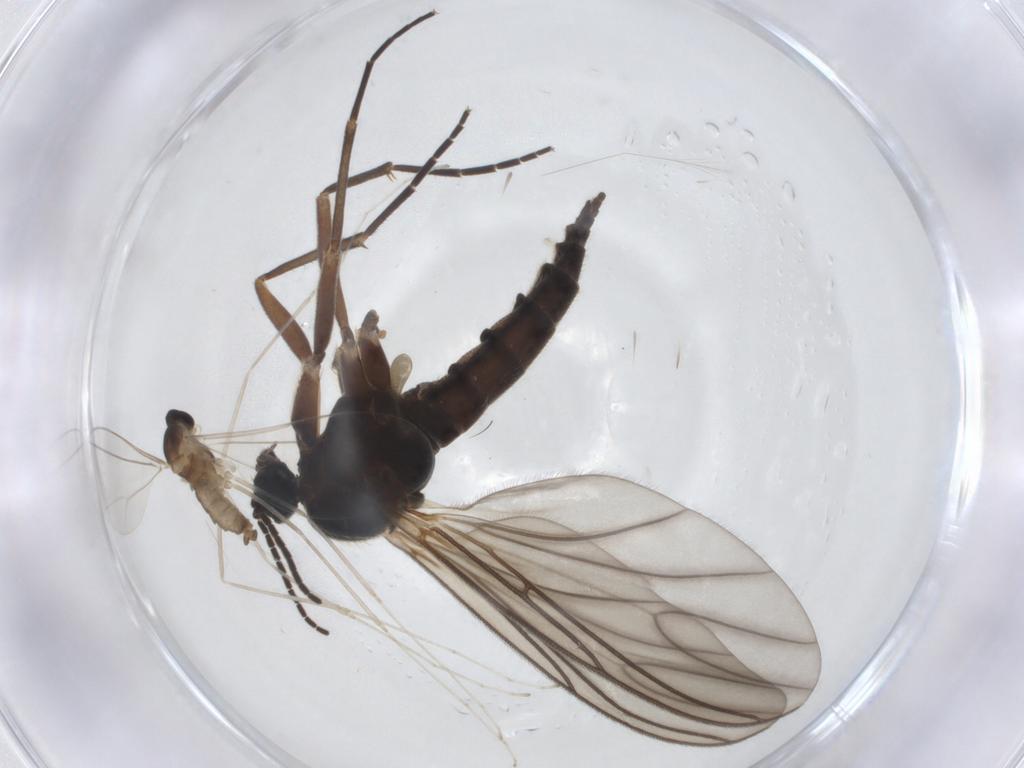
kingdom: Animalia
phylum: Arthropoda
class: Insecta
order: Diptera
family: Sciaridae
